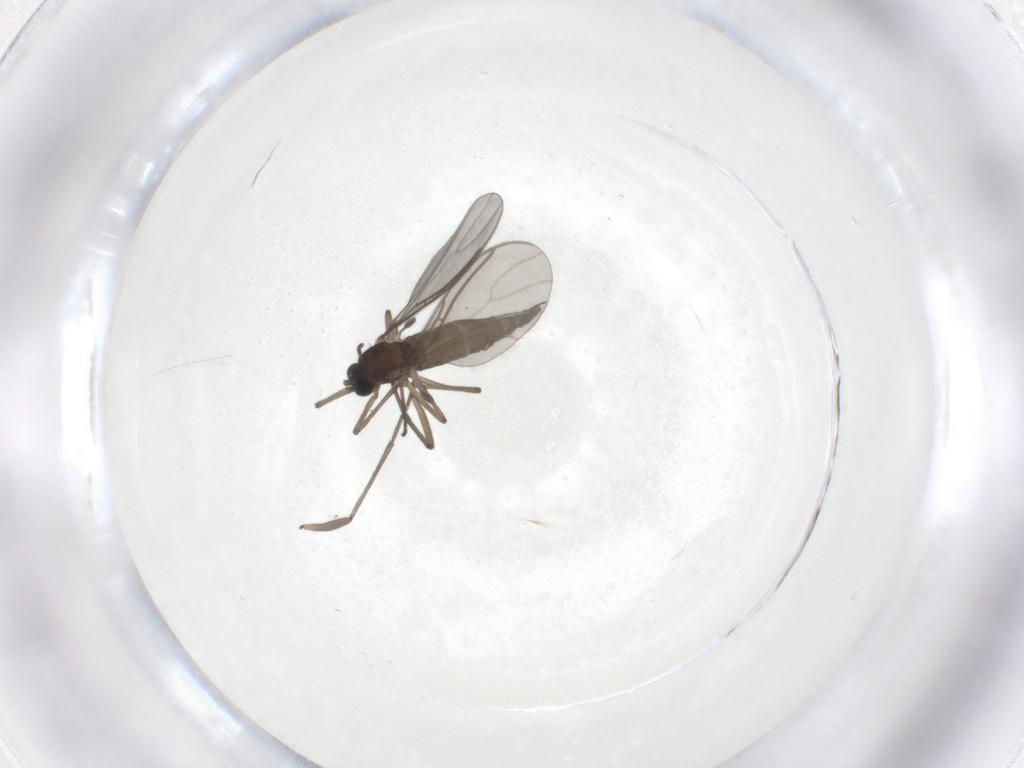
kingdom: Animalia
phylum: Arthropoda
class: Insecta
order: Diptera
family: Sciaridae
